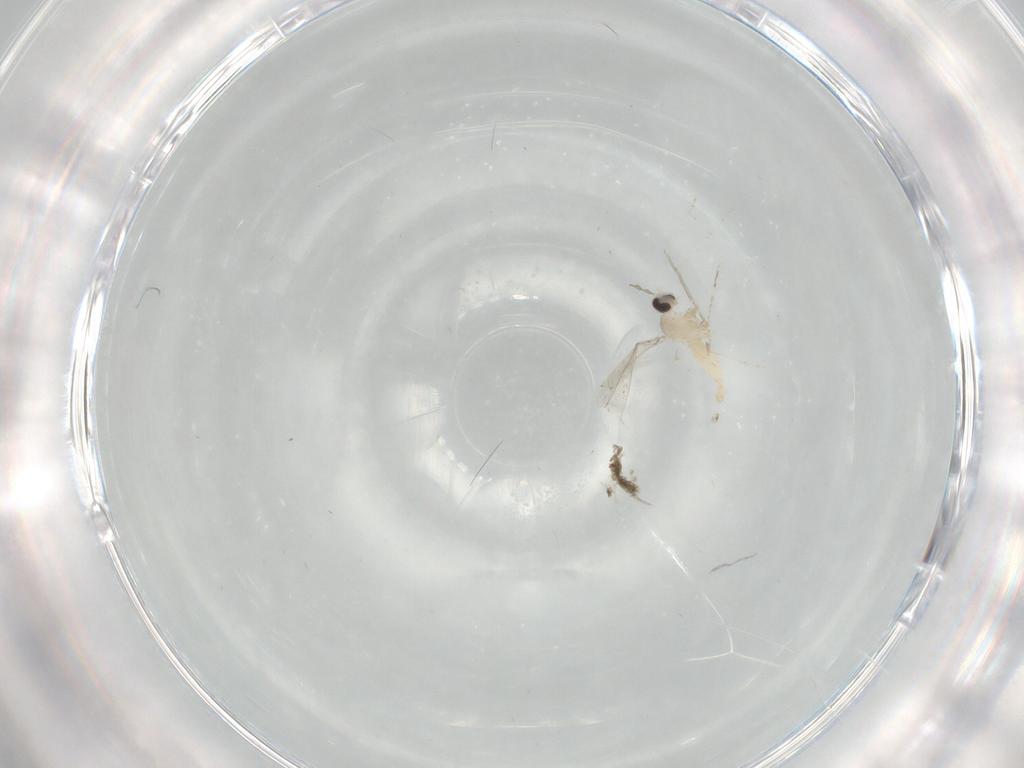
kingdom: Animalia
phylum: Arthropoda
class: Insecta
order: Diptera
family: Cecidomyiidae
